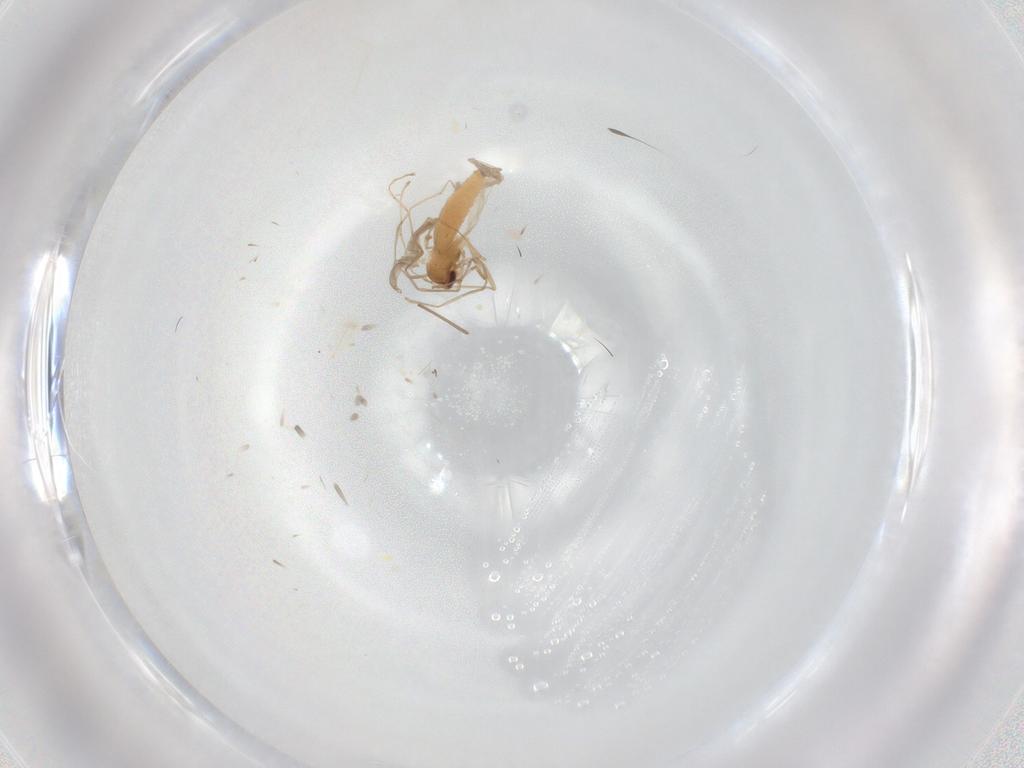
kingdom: Animalia
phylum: Arthropoda
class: Insecta
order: Diptera
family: Cecidomyiidae
